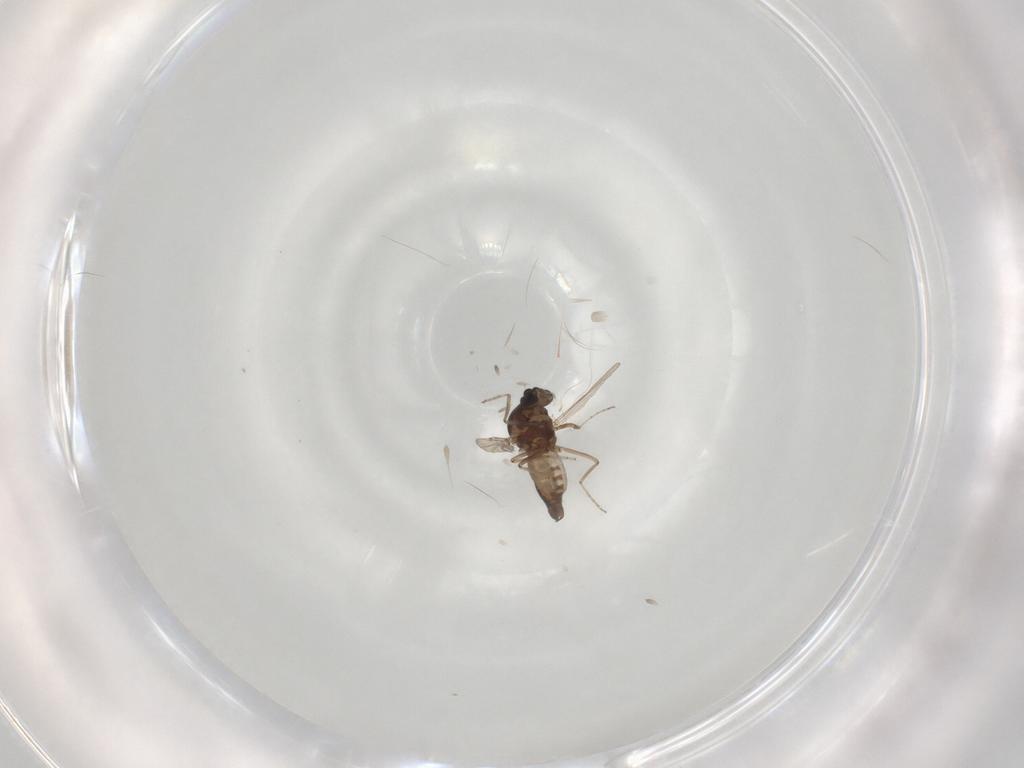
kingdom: Animalia
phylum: Arthropoda
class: Insecta
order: Diptera
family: Ceratopogonidae
